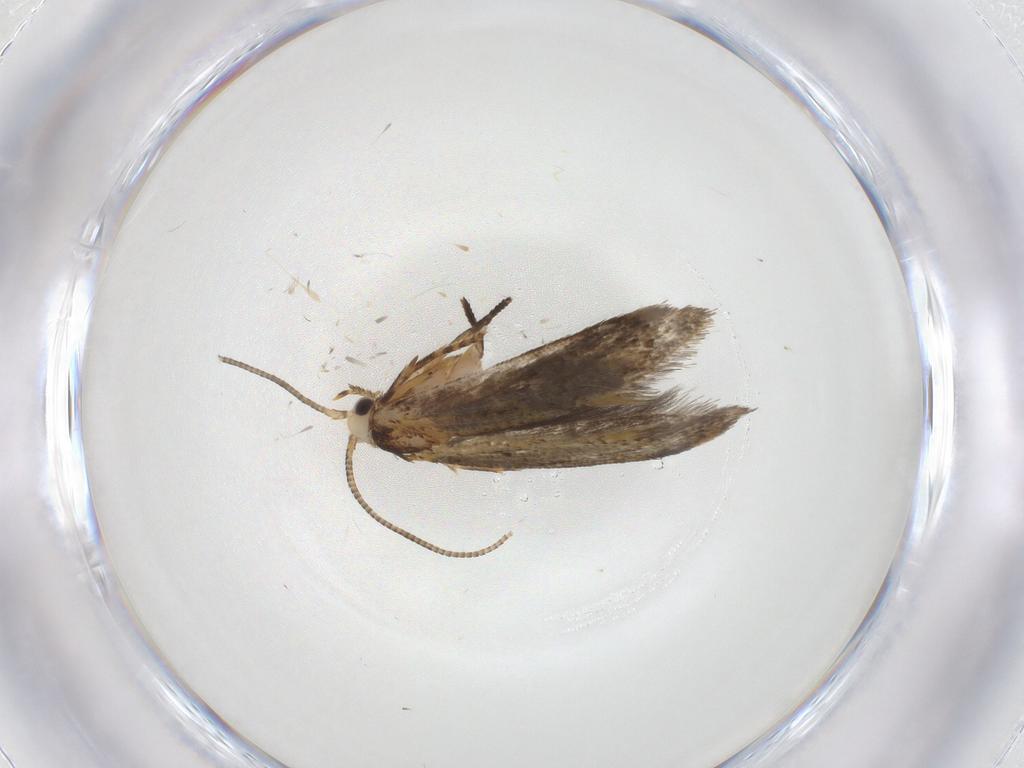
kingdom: Animalia
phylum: Arthropoda
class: Insecta
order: Lepidoptera
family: Tineidae
